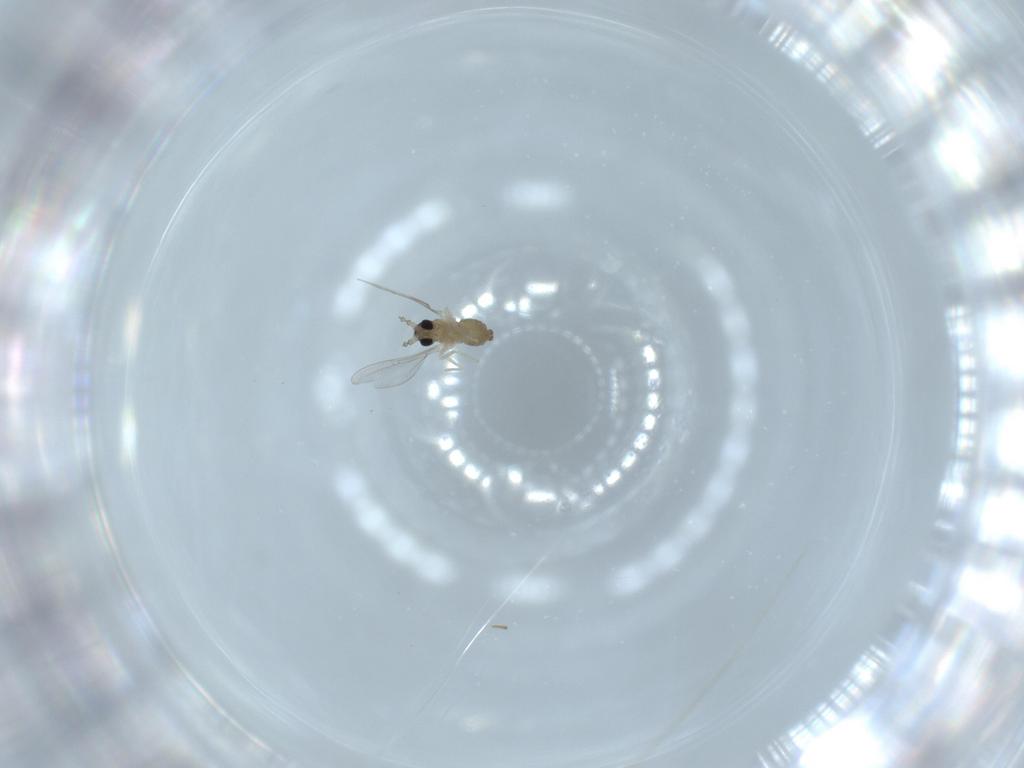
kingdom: Animalia
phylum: Arthropoda
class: Insecta
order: Diptera
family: Cecidomyiidae
